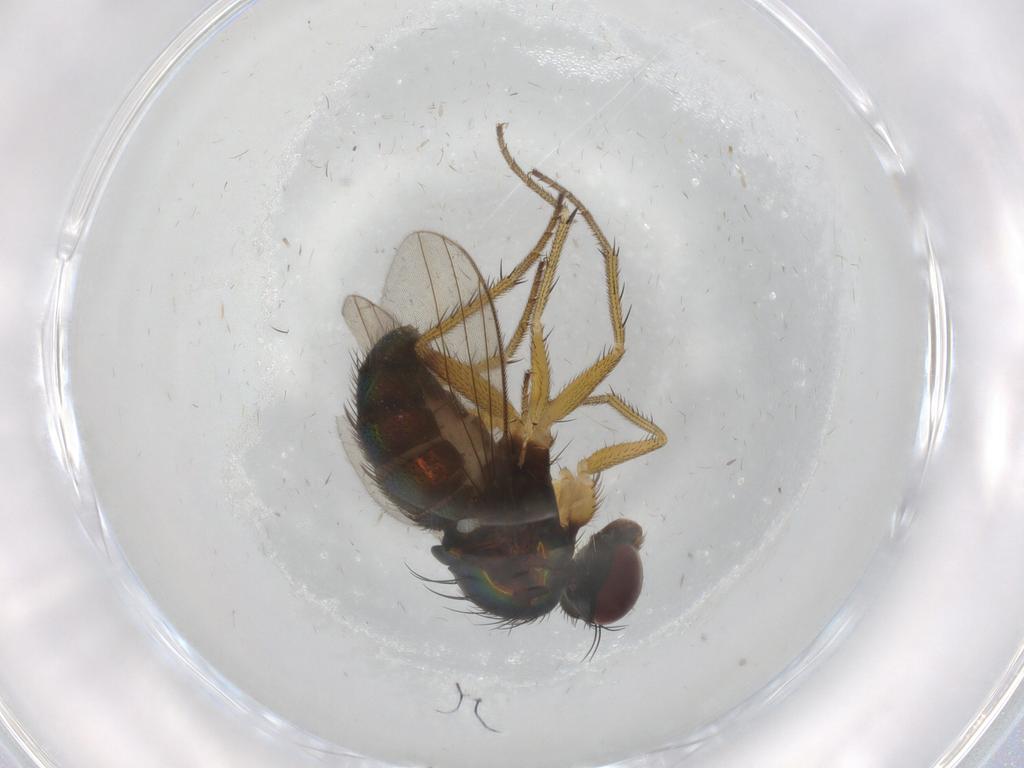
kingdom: Animalia
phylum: Arthropoda
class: Insecta
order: Diptera
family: Dolichopodidae
